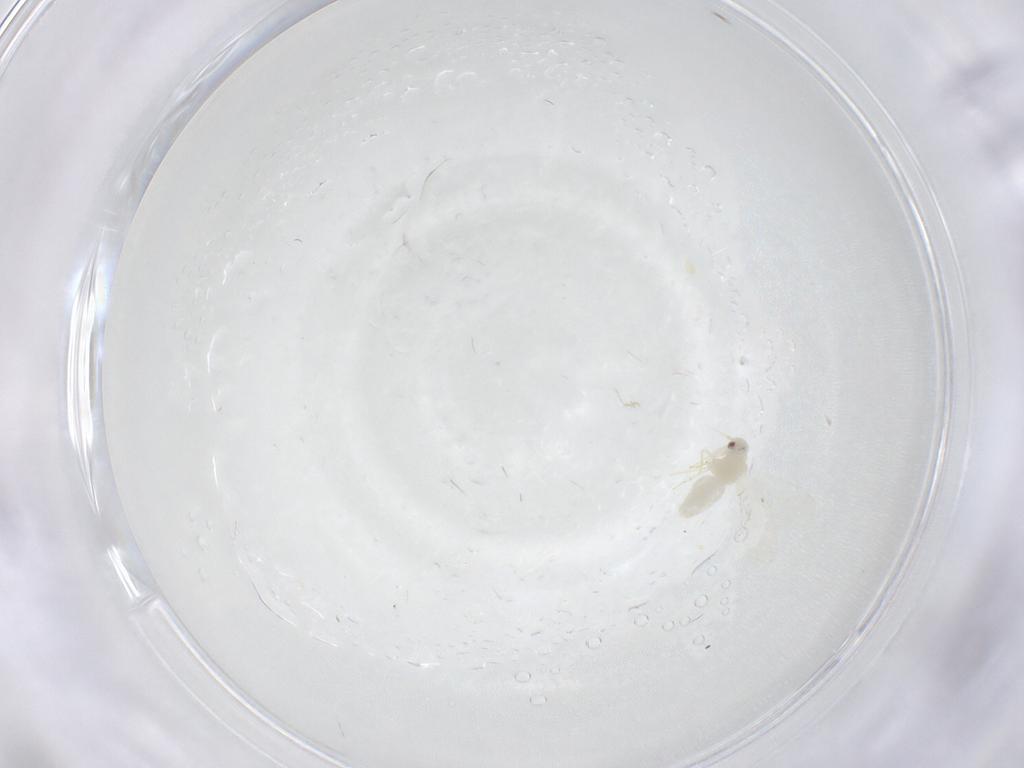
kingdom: Animalia
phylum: Arthropoda
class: Insecta
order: Hemiptera
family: Aleyrodidae
